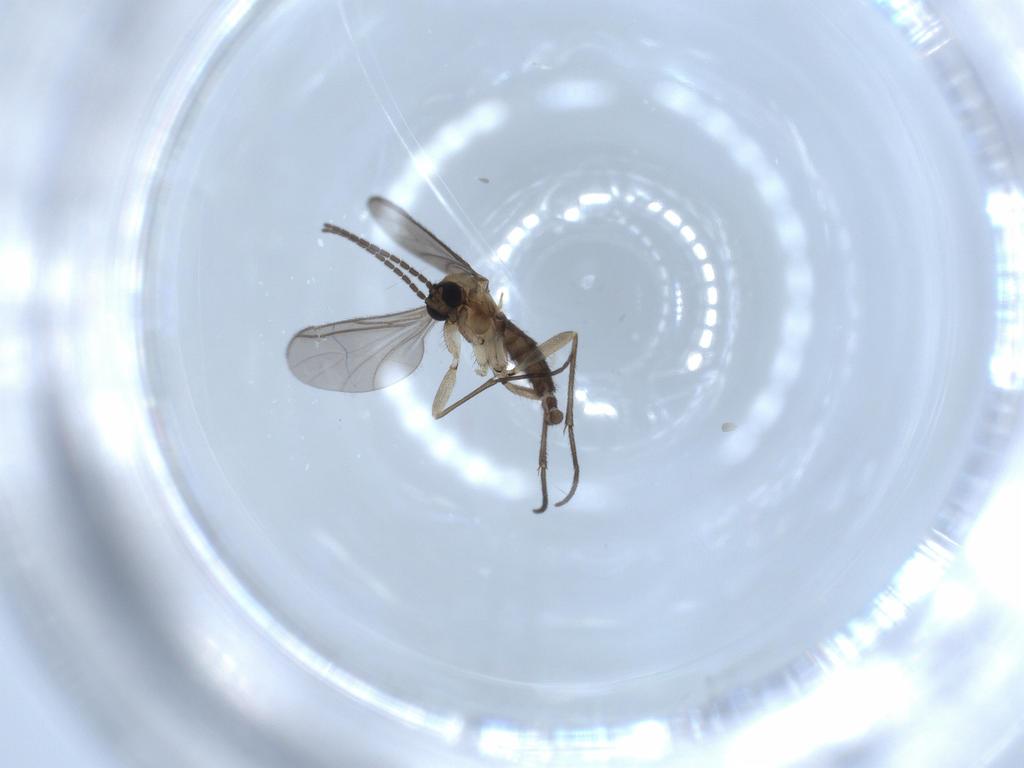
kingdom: Animalia
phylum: Arthropoda
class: Insecta
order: Diptera
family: Sciaridae
